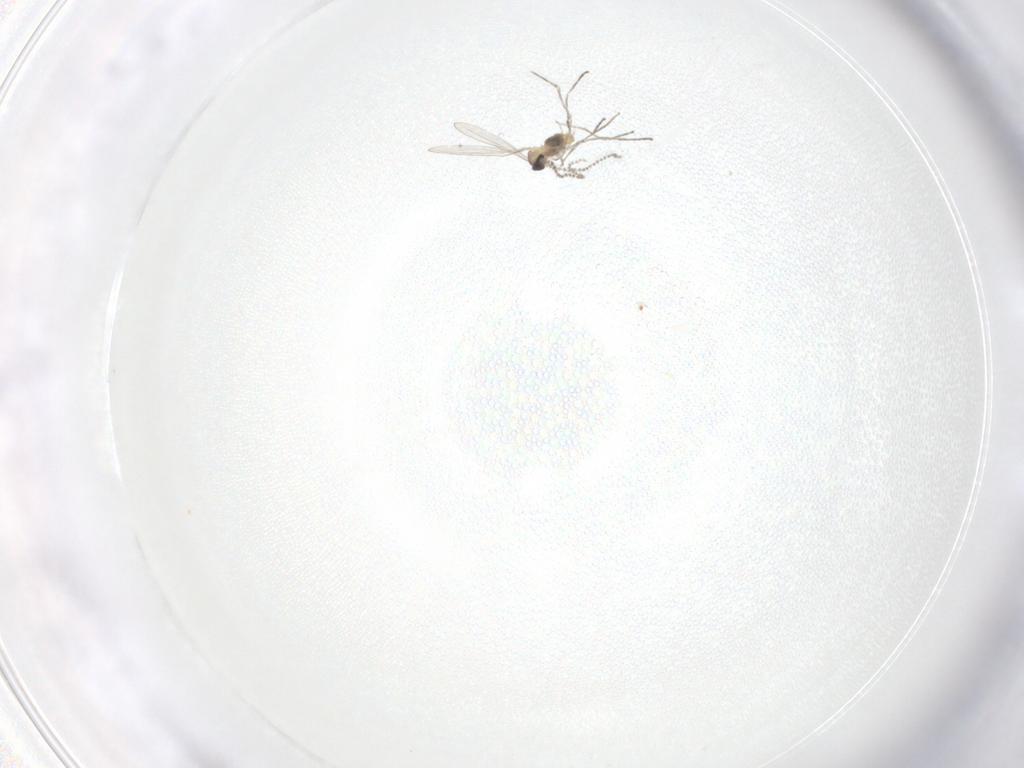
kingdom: Animalia
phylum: Arthropoda
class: Insecta
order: Diptera
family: Cecidomyiidae
